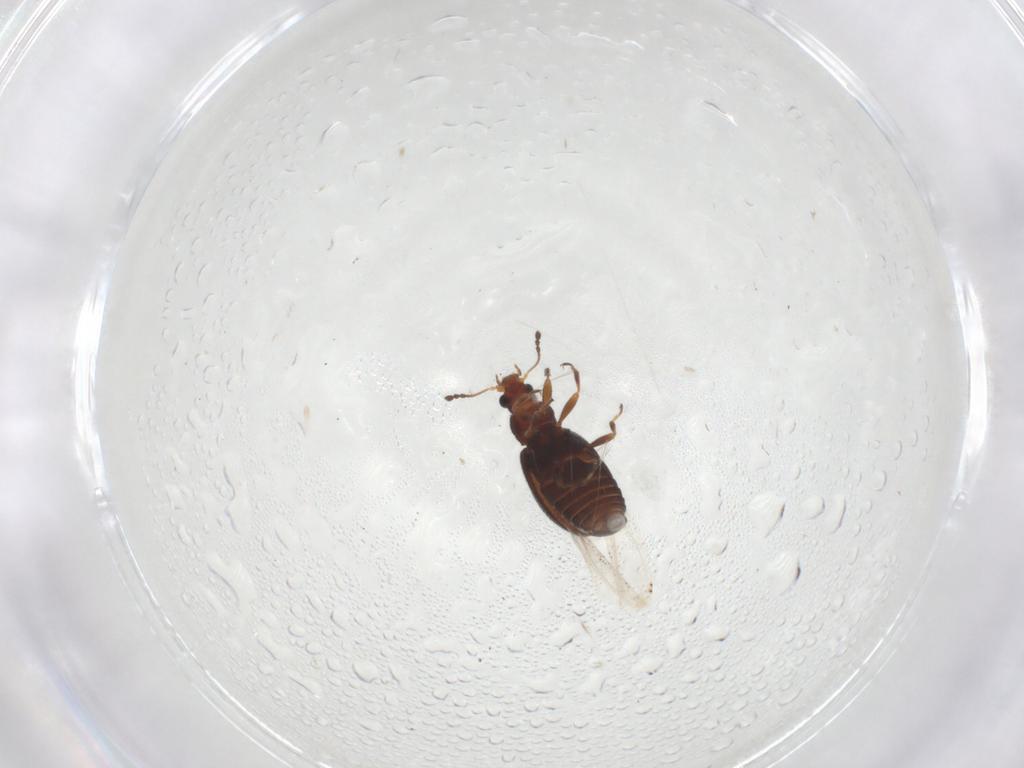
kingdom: Animalia
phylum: Arthropoda
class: Insecta
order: Coleoptera
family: Latridiidae
